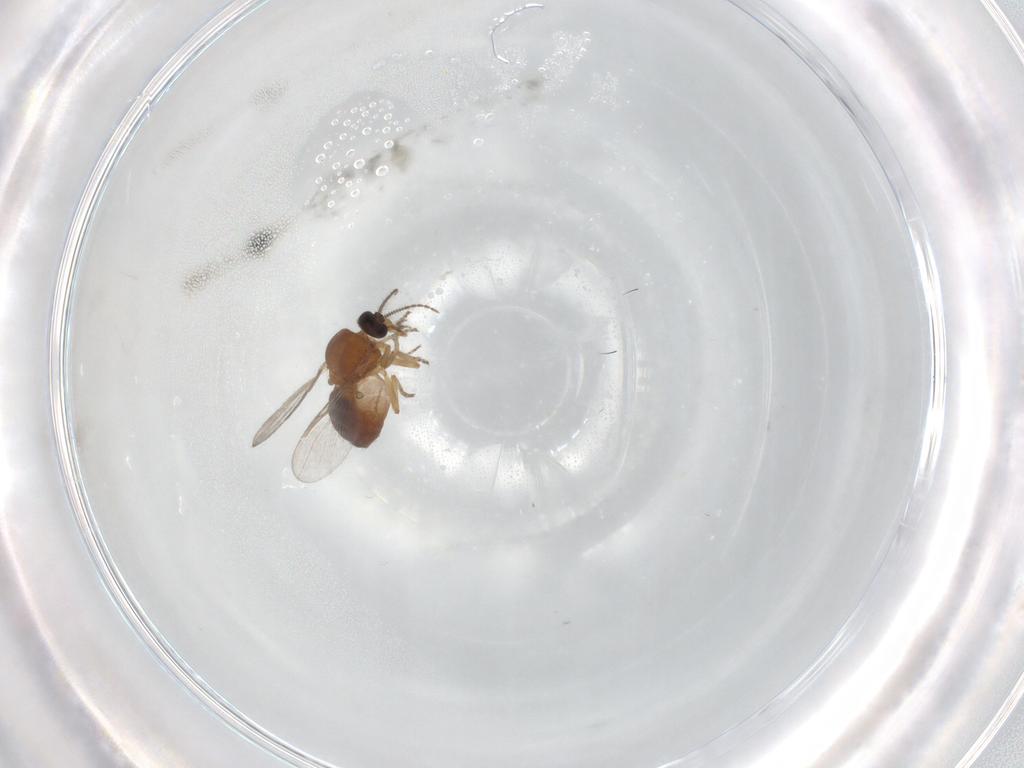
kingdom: Animalia
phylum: Arthropoda
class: Insecta
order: Diptera
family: Ceratopogonidae
